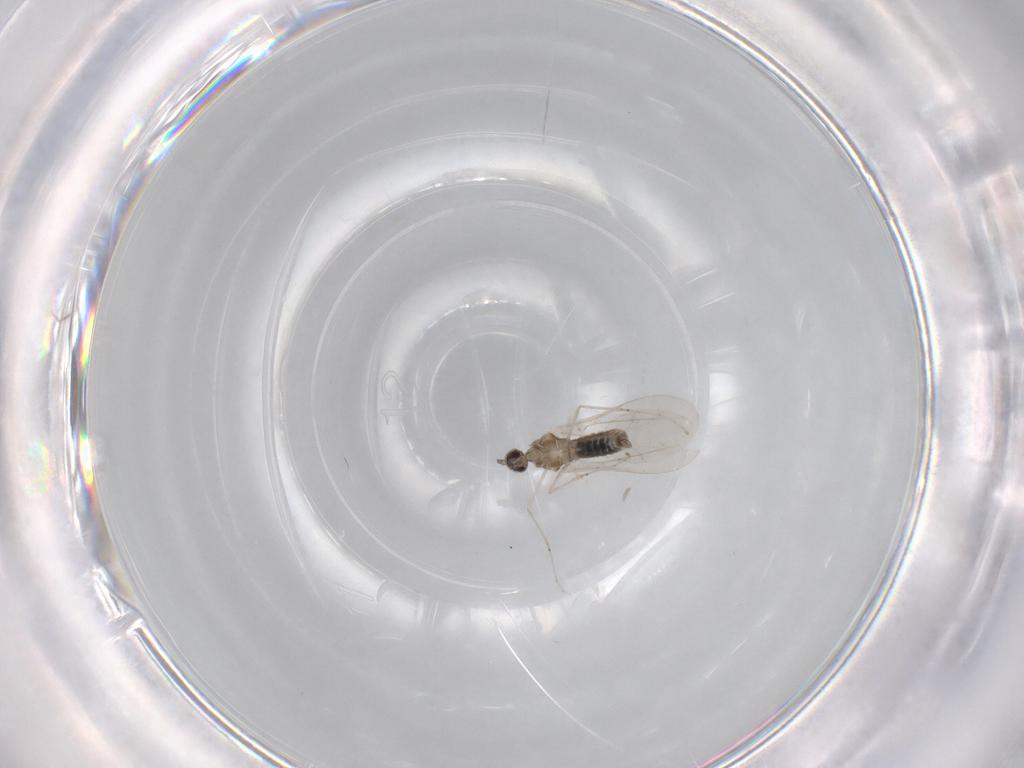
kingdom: Animalia
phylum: Arthropoda
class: Insecta
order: Diptera
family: Cecidomyiidae
